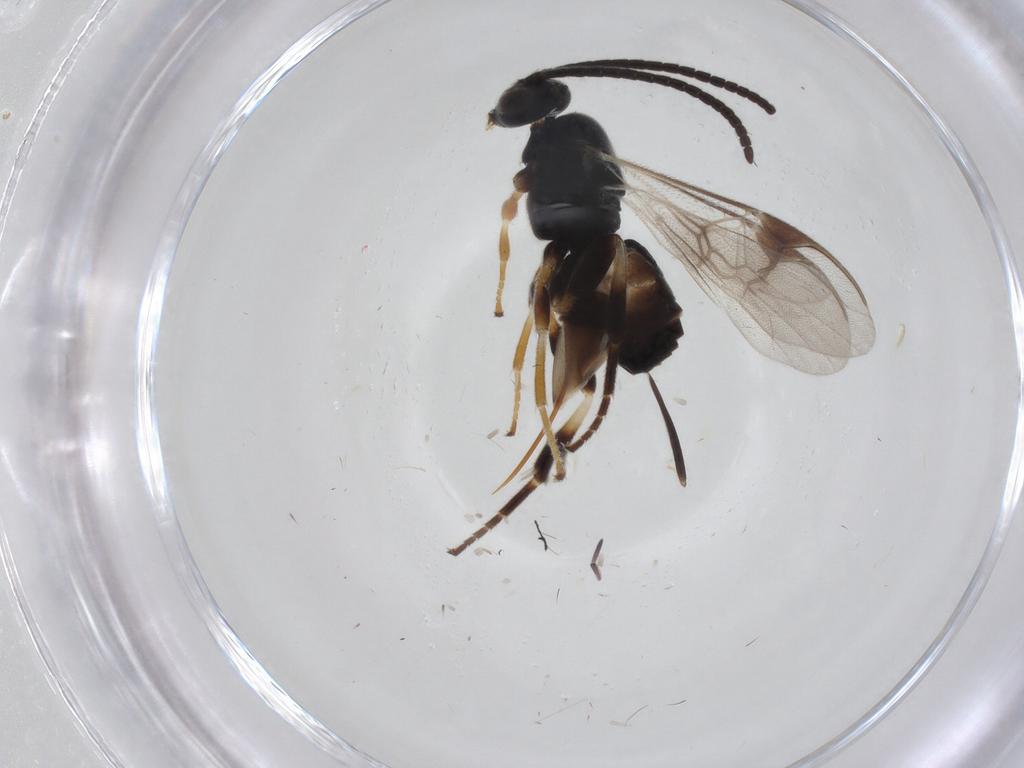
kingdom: Animalia
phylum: Arthropoda
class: Insecta
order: Hymenoptera
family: Braconidae
